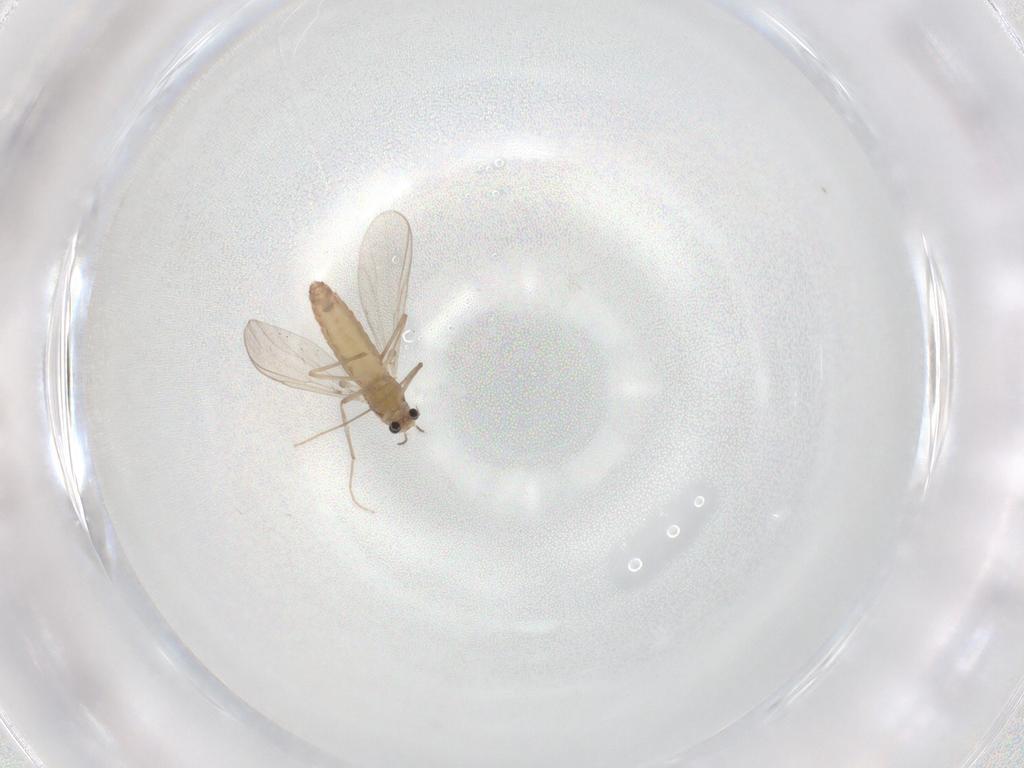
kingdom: Animalia
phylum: Arthropoda
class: Insecta
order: Diptera
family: Chironomidae
